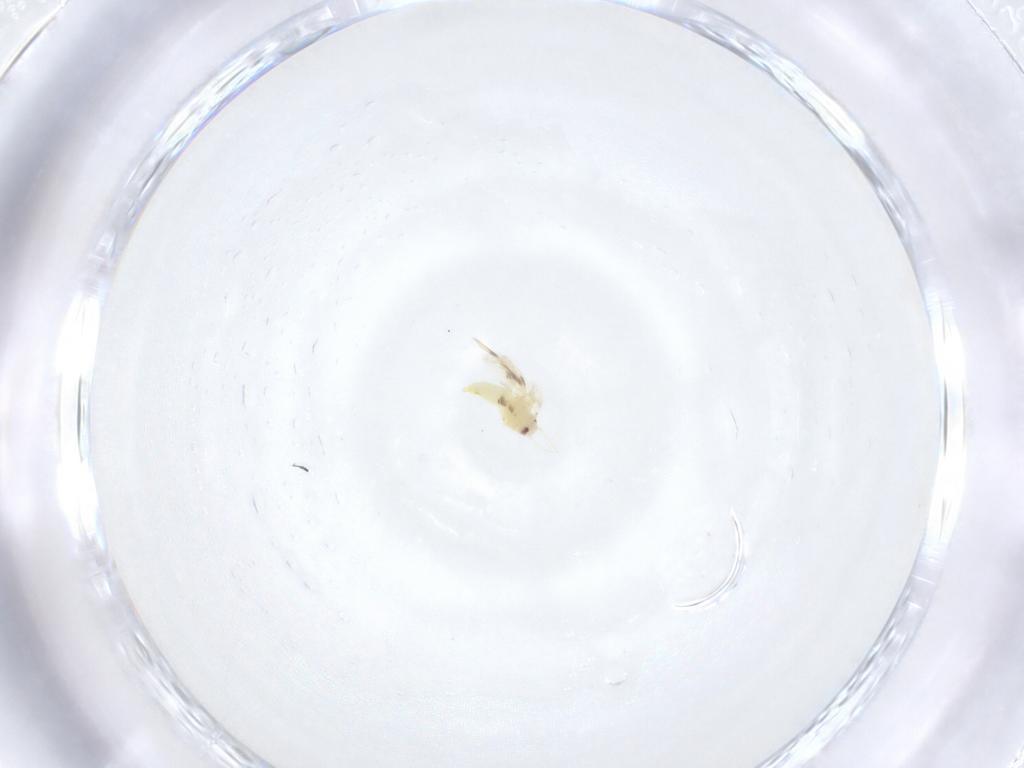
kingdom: Animalia
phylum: Arthropoda
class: Insecta
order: Hemiptera
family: Aleyrodidae
